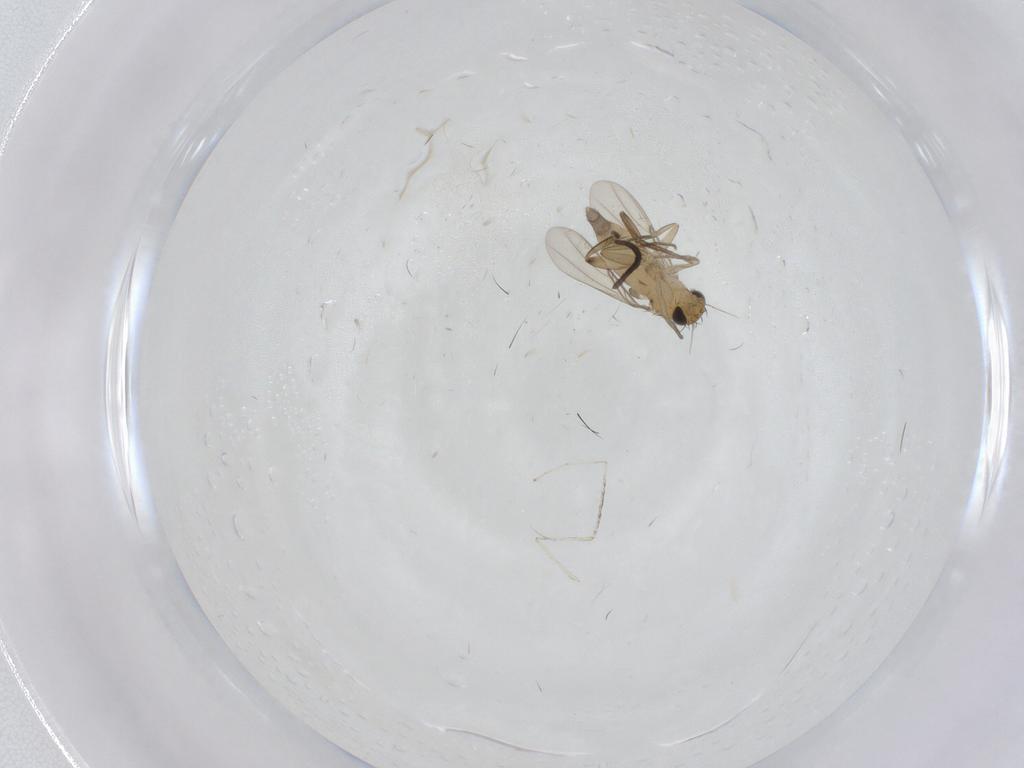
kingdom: Animalia
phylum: Arthropoda
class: Insecta
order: Diptera
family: Phoridae
